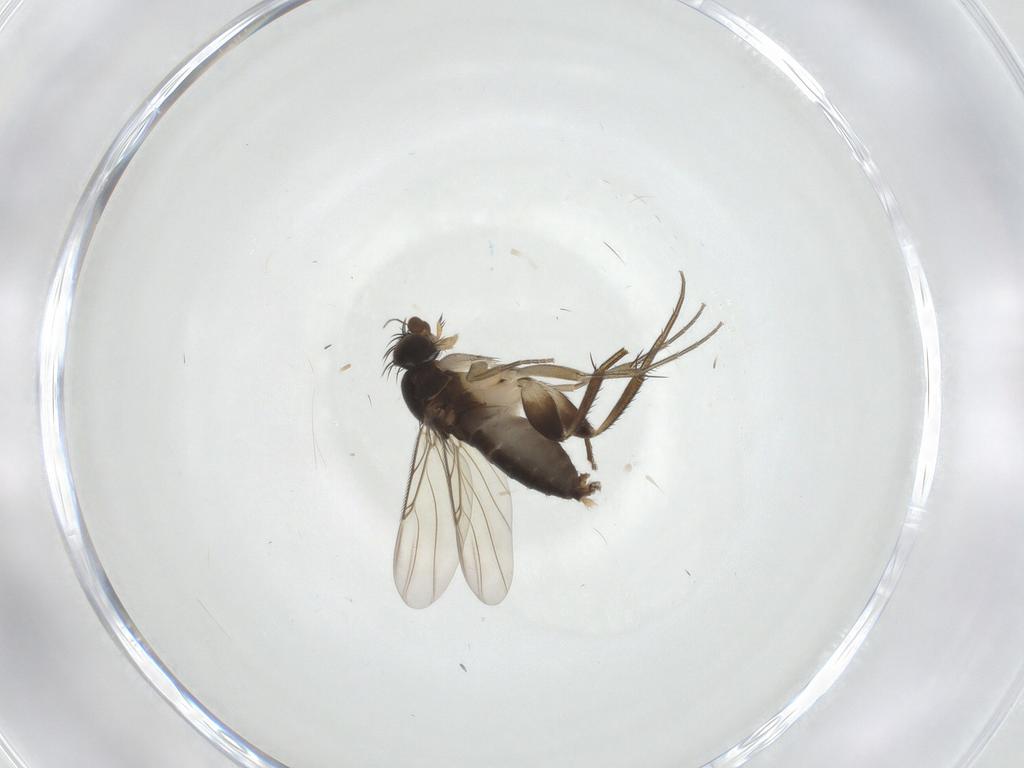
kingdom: Animalia
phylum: Arthropoda
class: Insecta
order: Diptera
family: Phoridae
